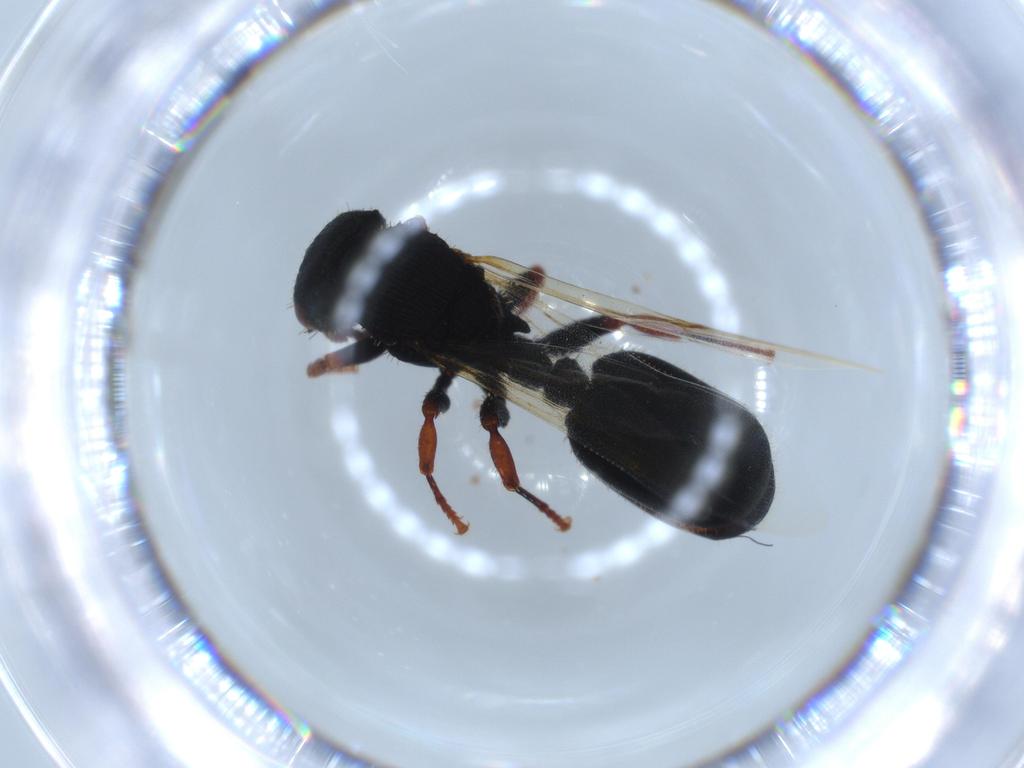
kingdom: Animalia
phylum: Arthropoda
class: Insecta
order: Hymenoptera
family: Formicidae
